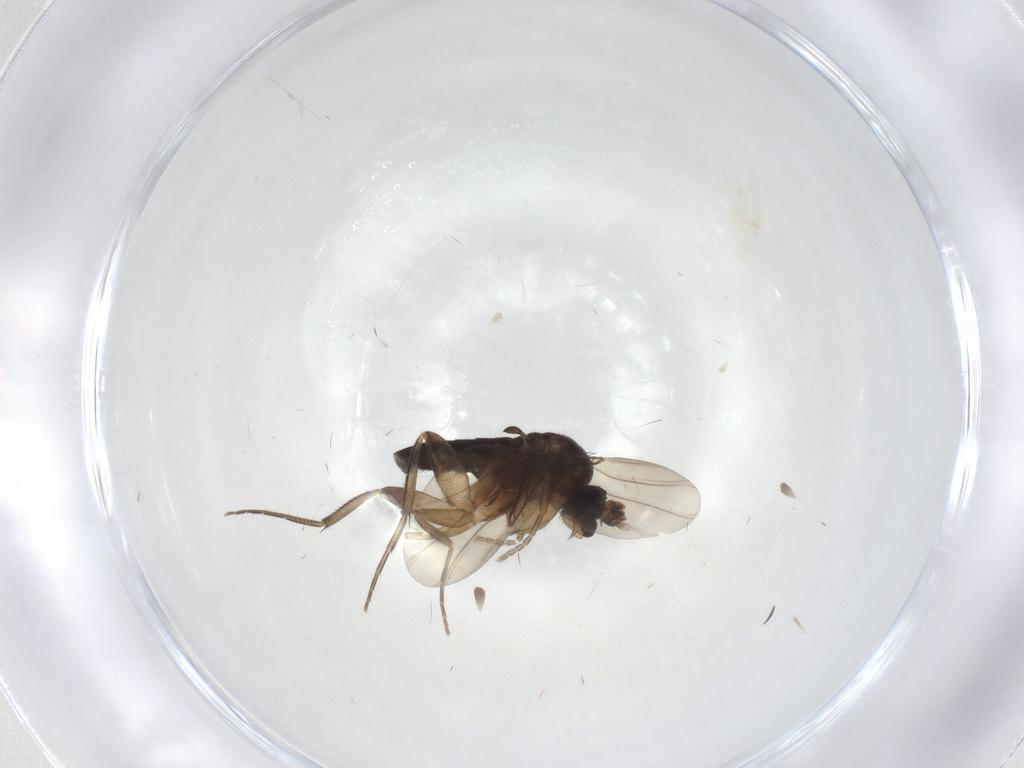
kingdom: Animalia
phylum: Arthropoda
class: Insecta
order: Diptera
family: Phoridae
